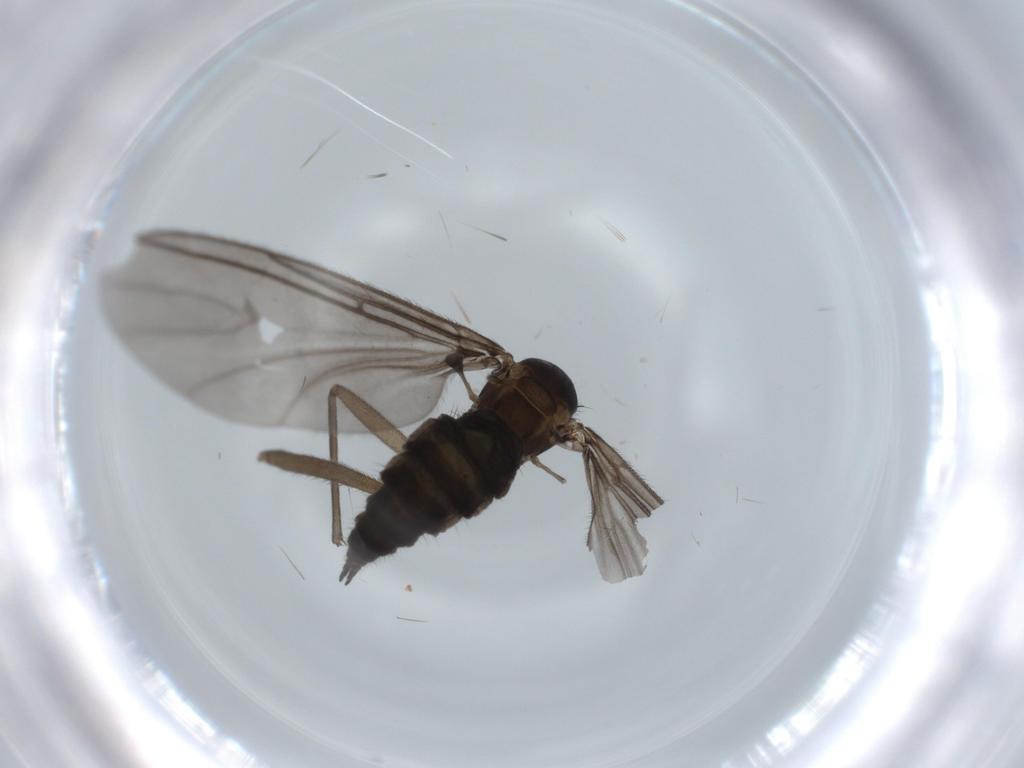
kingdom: Animalia
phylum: Arthropoda
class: Insecta
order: Diptera
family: Sciaridae
